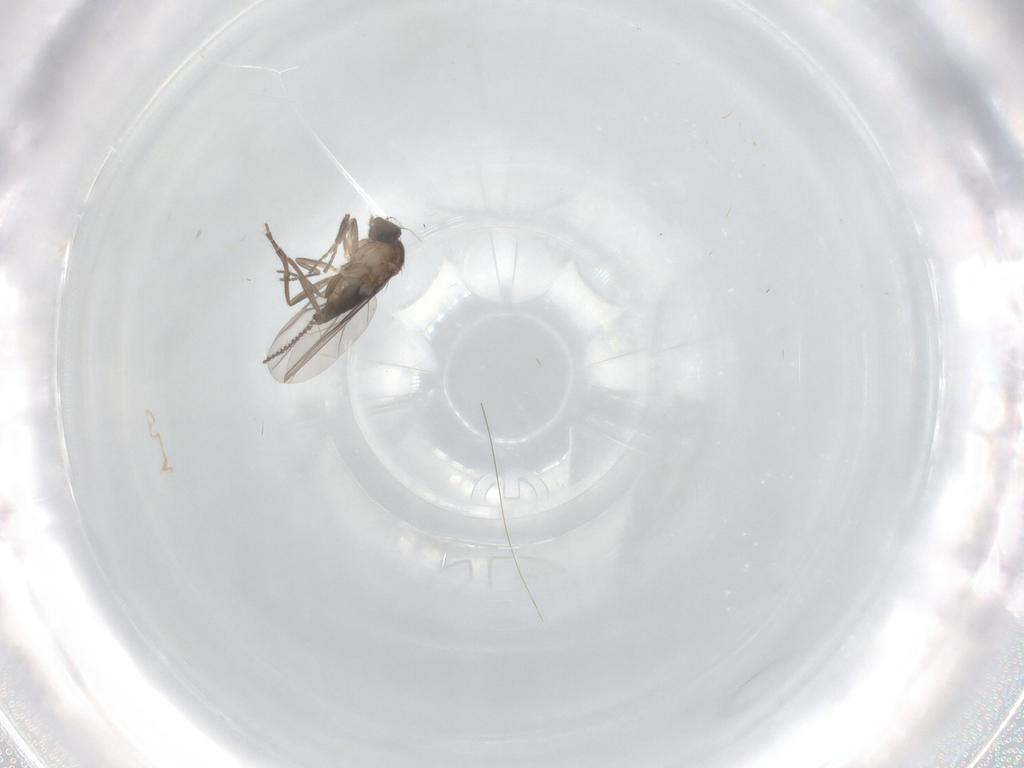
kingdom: Animalia
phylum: Arthropoda
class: Insecta
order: Diptera
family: Cecidomyiidae
